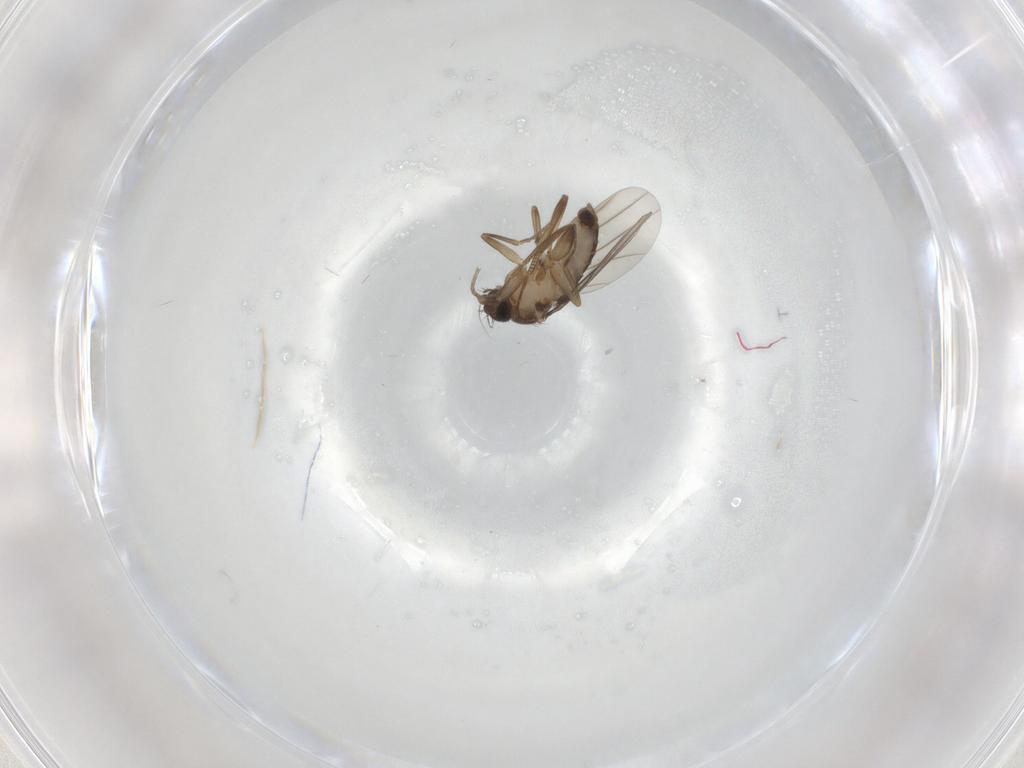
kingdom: Animalia
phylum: Arthropoda
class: Insecta
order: Diptera
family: Phoridae
